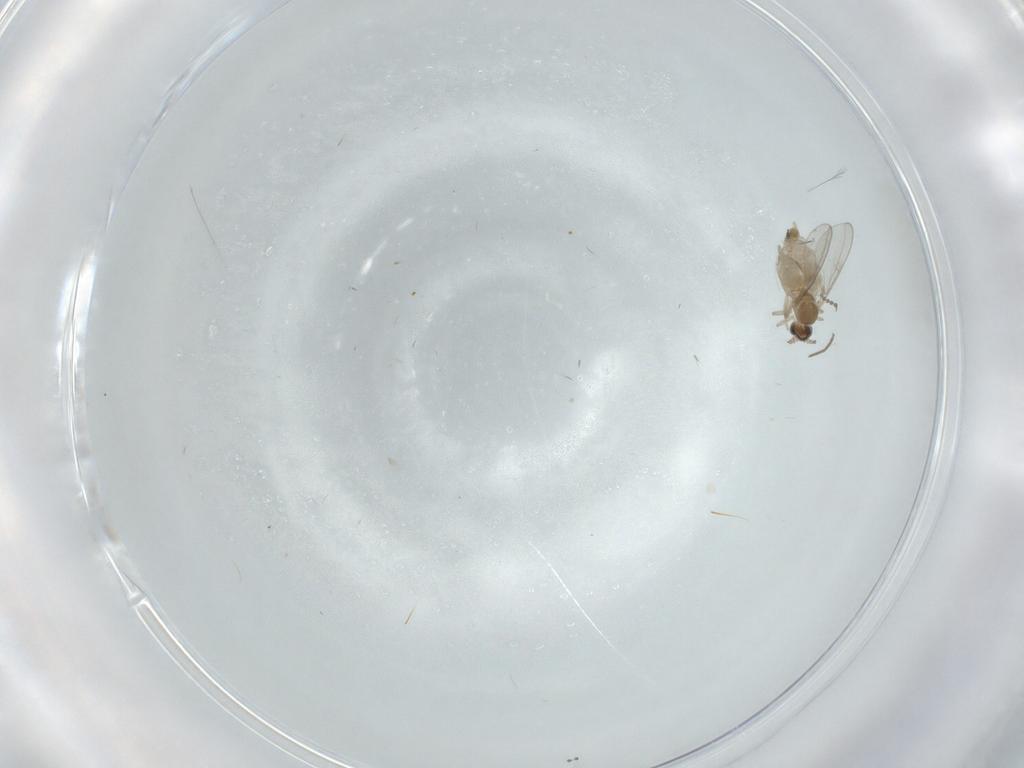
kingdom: Animalia
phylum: Arthropoda
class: Insecta
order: Diptera
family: Cecidomyiidae
